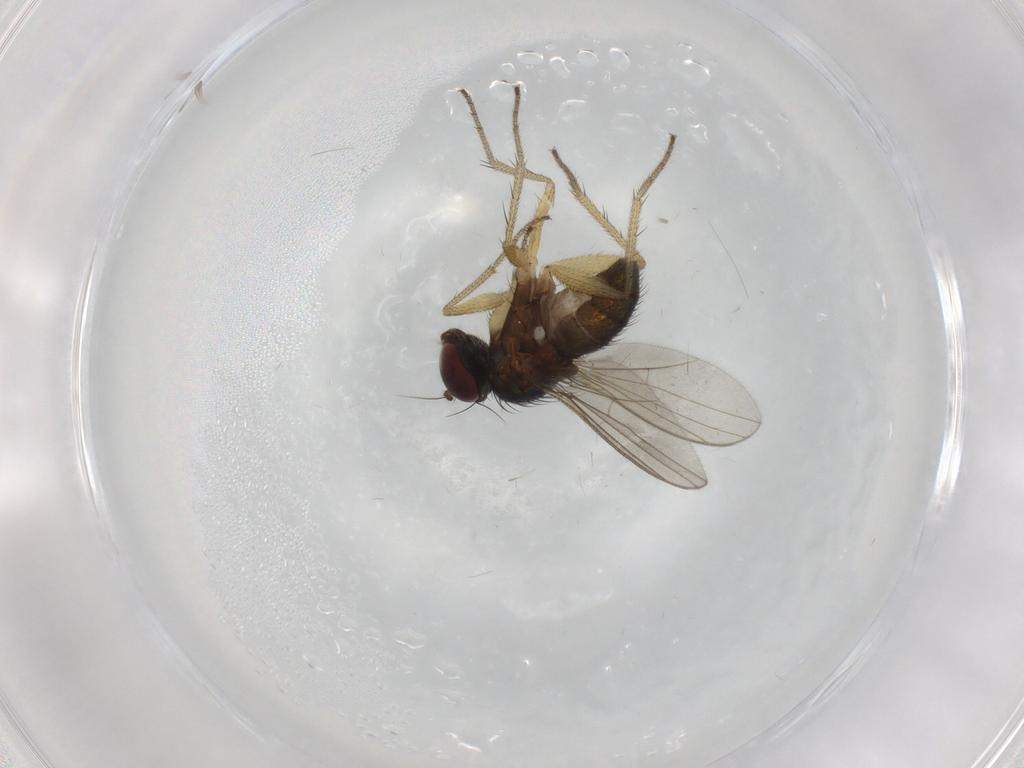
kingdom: Animalia
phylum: Arthropoda
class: Insecta
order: Diptera
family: Dolichopodidae
